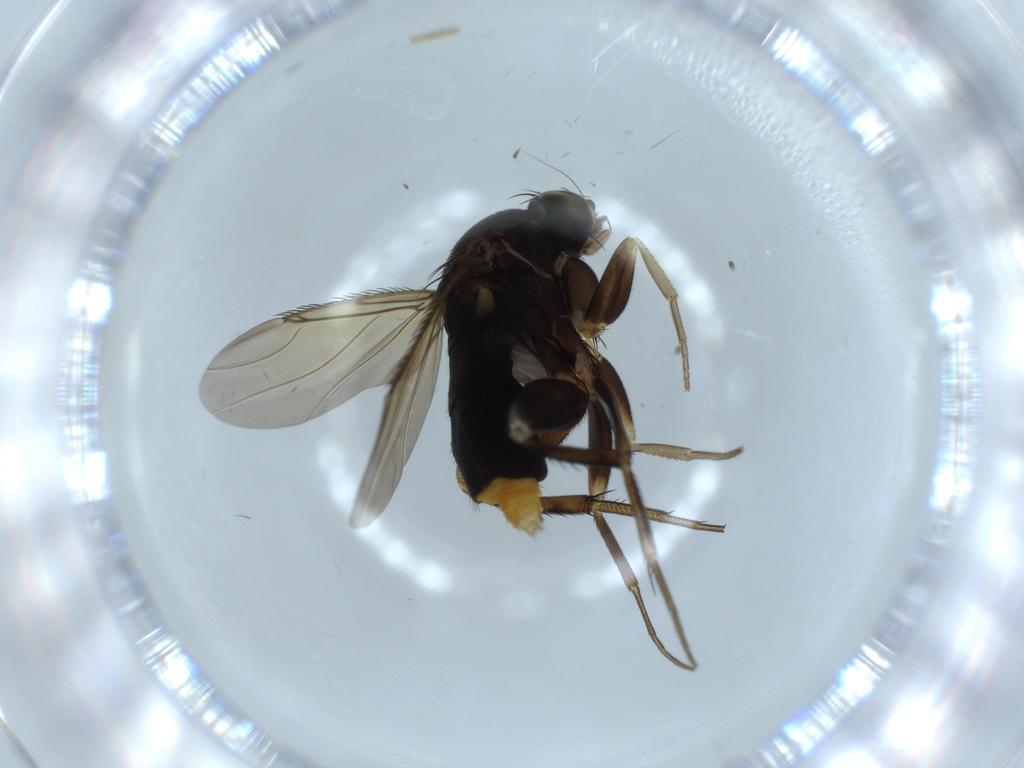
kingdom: Animalia
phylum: Arthropoda
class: Insecta
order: Diptera
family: Phoridae
